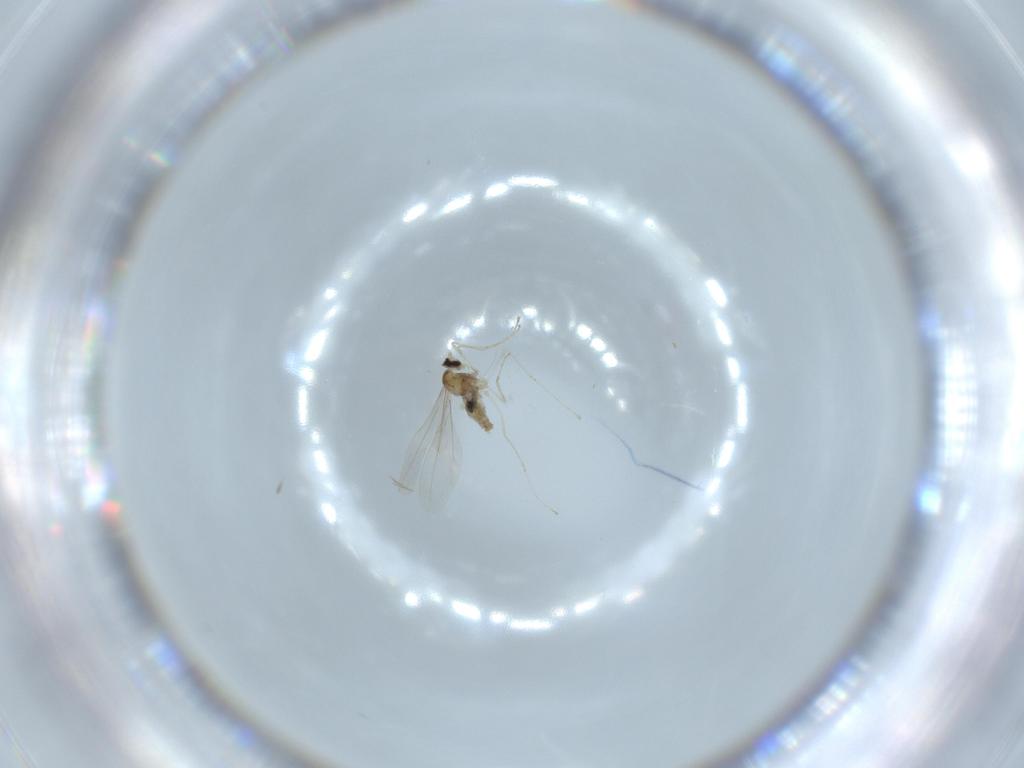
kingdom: Animalia
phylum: Arthropoda
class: Insecta
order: Diptera
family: Cecidomyiidae
